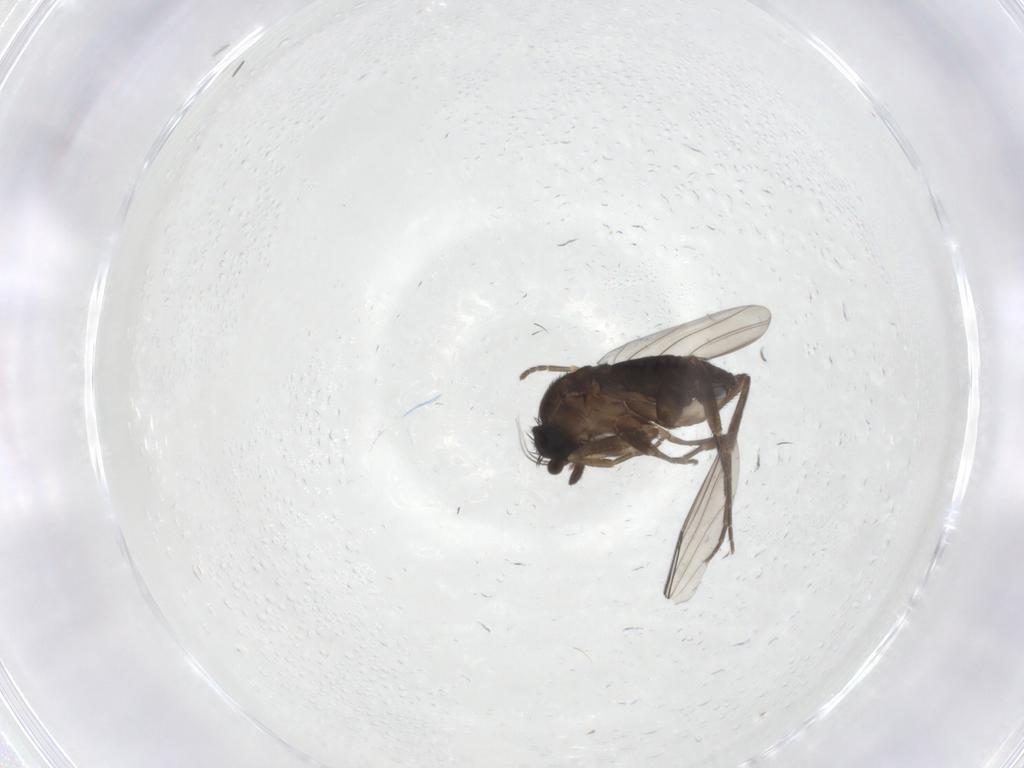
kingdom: Animalia
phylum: Arthropoda
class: Insecta
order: Diptera
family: Phoridae
